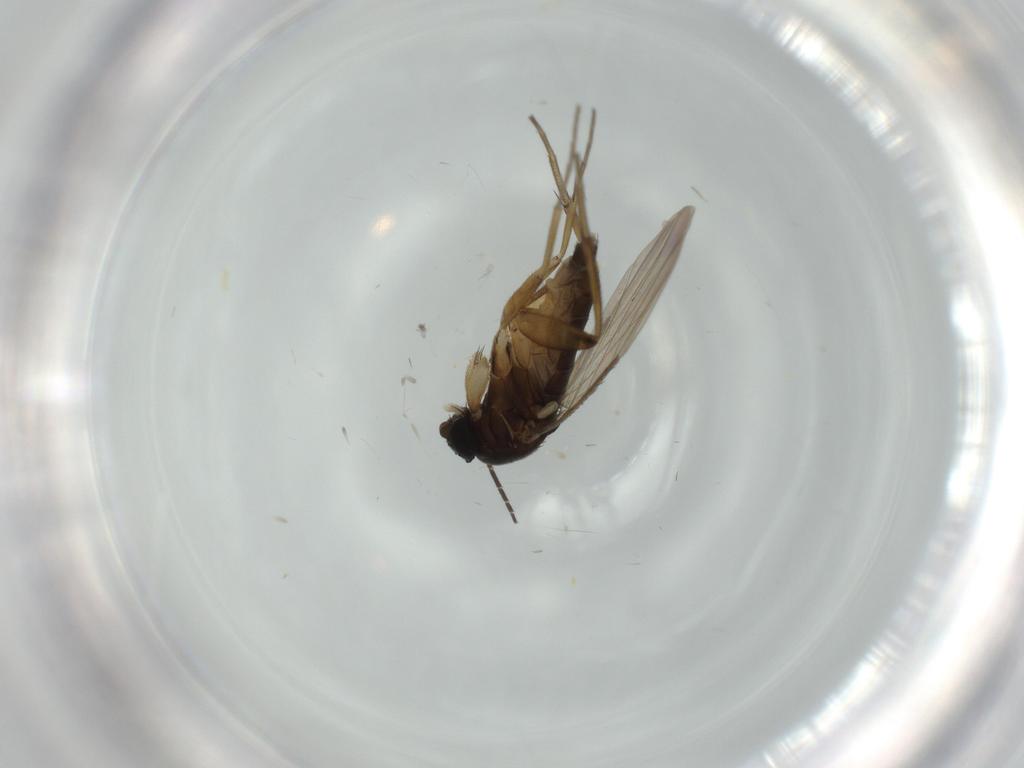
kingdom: Animalia
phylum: Arthropoda
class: Insecta
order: Diptera
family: Phoridae
